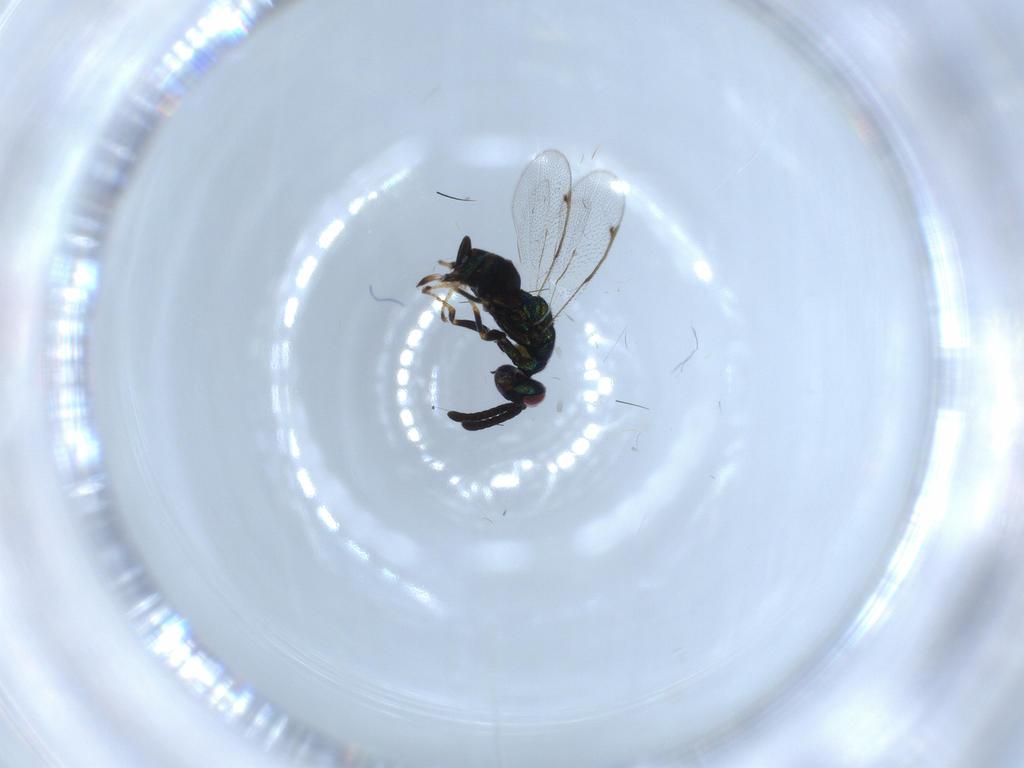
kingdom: Animalia
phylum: Arthropoda
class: Insecta
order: Hymenoptera
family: Torymidae
